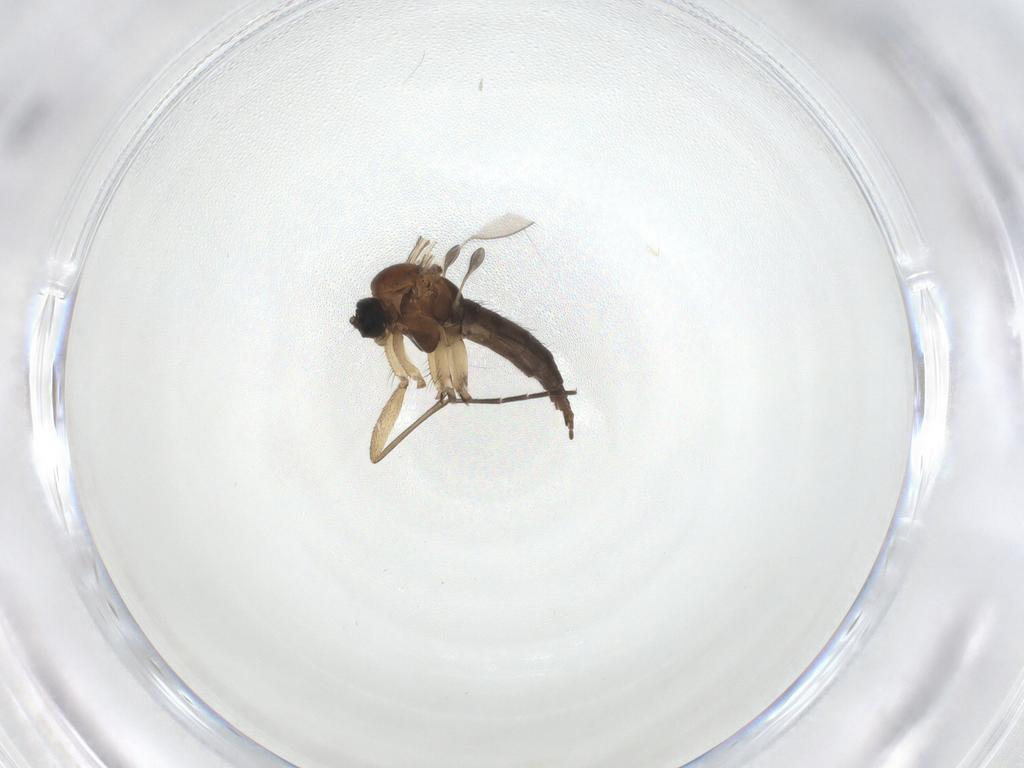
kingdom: Animalia
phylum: Arthropoda
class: Insecta
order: Diptera
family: Sciaridae
